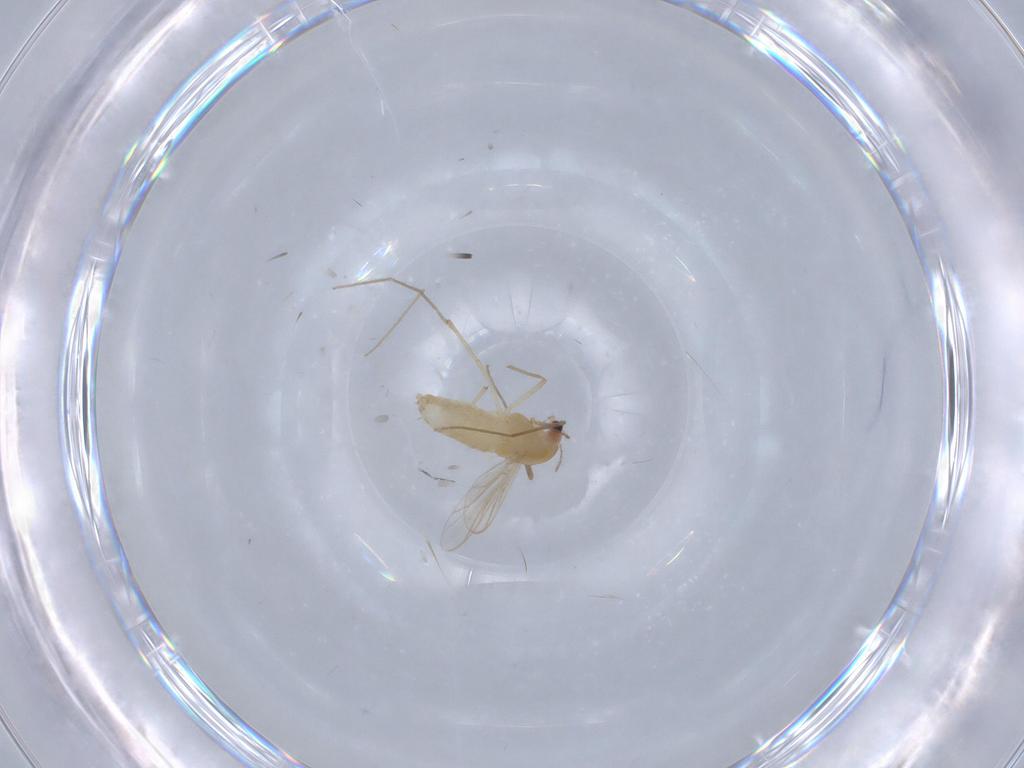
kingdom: Animalia
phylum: Arthropoda
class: Insecta
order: Diptera
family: Chironomidae
